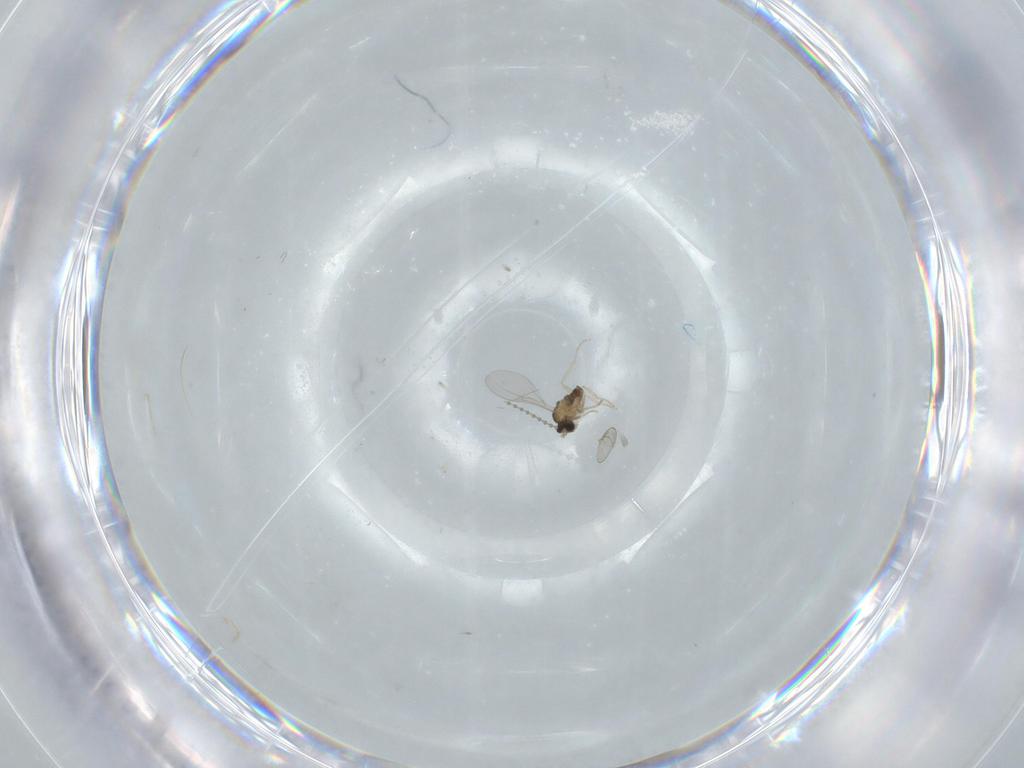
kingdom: Animalia
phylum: Arthropoda
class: Insecta
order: Diptera
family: Cecidomyiidae
